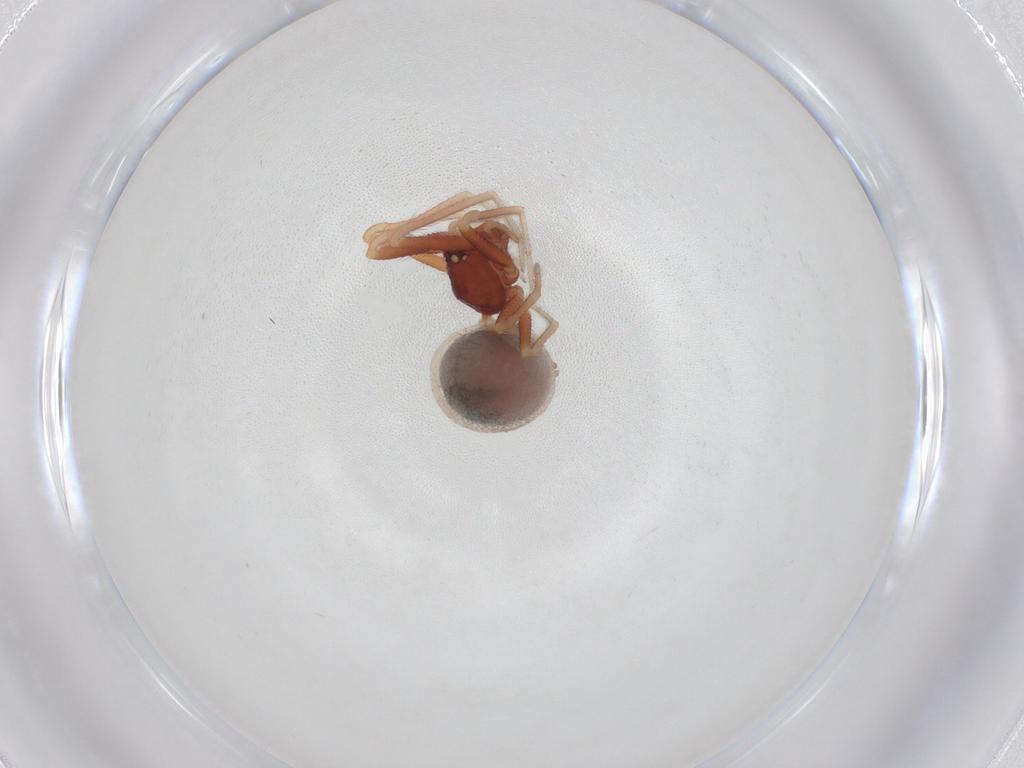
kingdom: Animalia
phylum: Arthropoda
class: Arachnida
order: Araneae
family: Theridiidae
